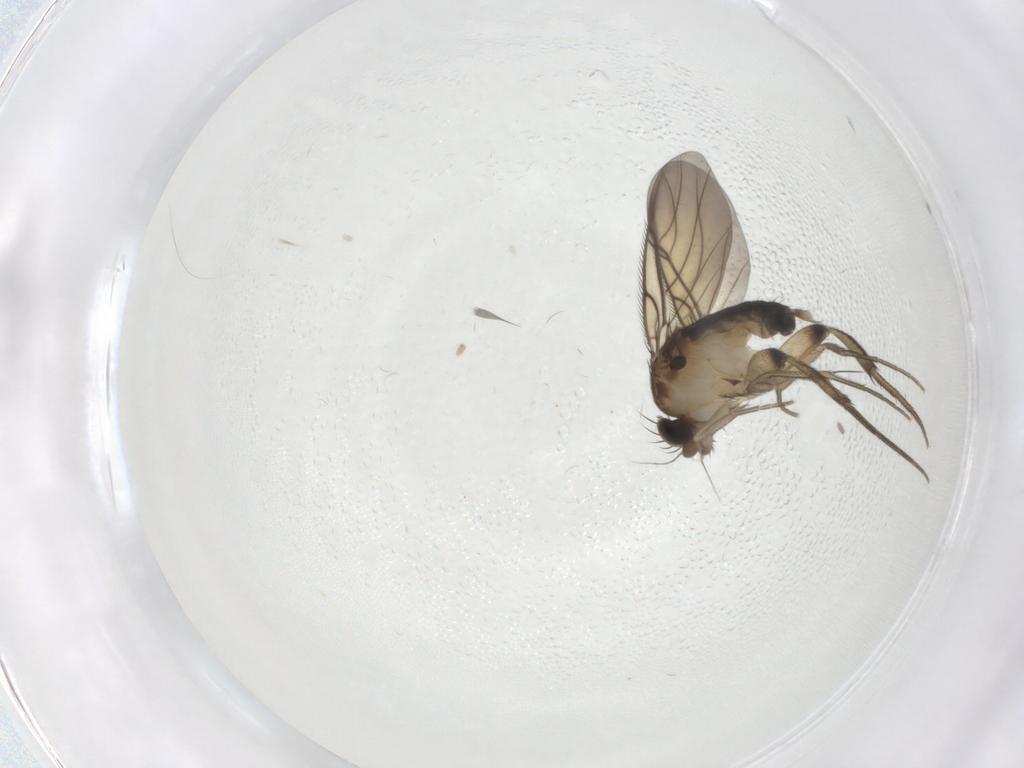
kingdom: Animalia
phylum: Arthropoda
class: Insecta
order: Diptera
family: Phoridae
